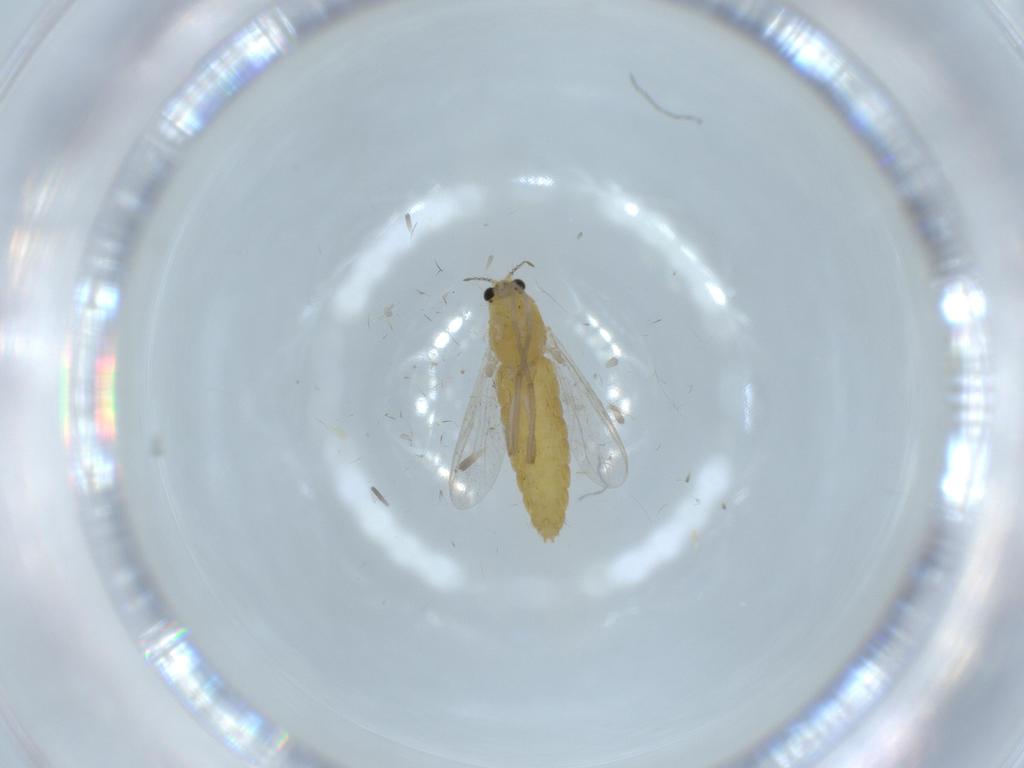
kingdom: Animalia
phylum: Arthropoda
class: Insecta
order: Diptera
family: Chironomidae
